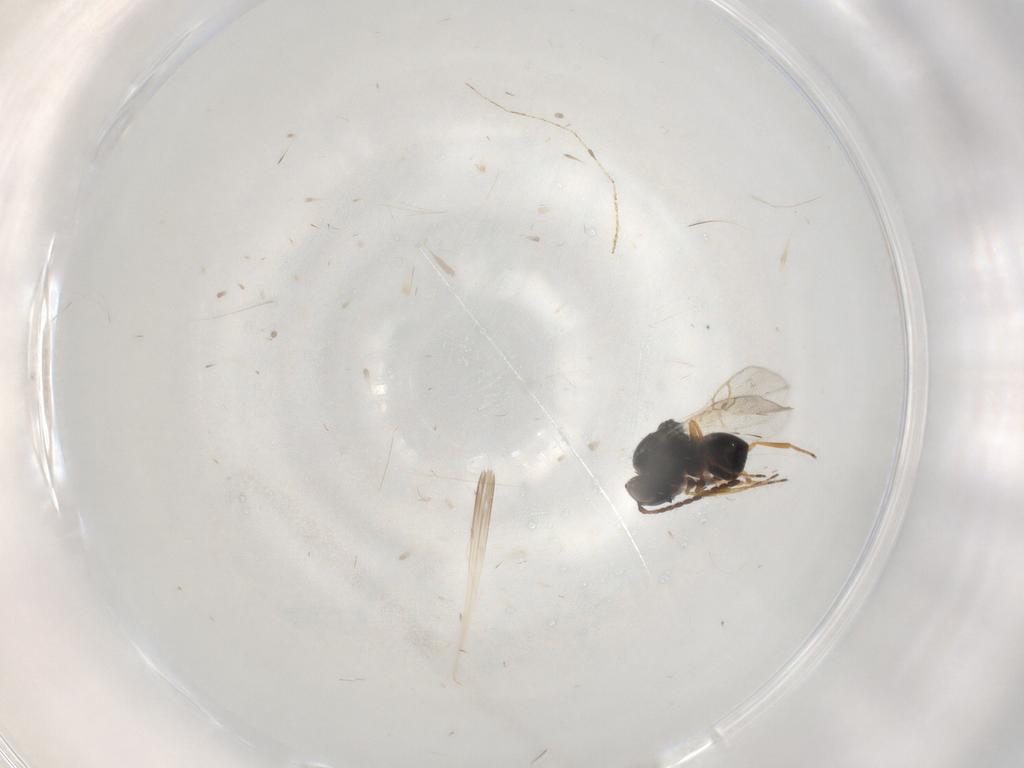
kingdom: Animalia
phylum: Arthropoda
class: Insecta
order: Hymenoptera
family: Figitidae
